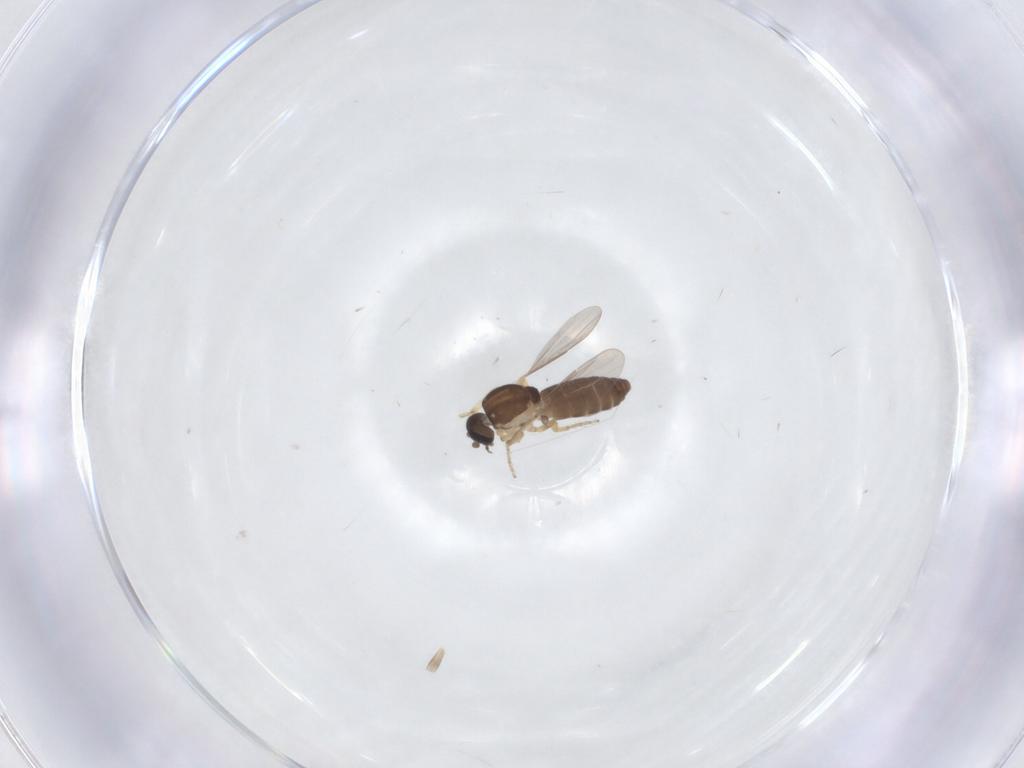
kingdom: Animalia
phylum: Arthropoda
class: Insecta
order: Diptera
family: Ceratopogonidae
